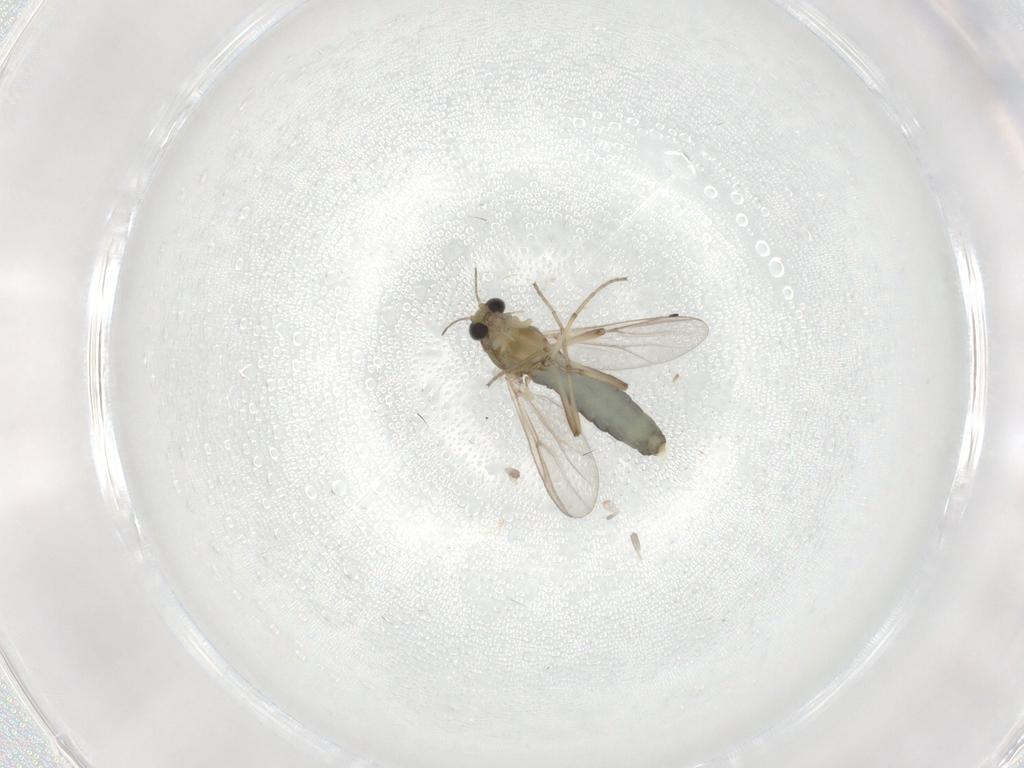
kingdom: Animalia
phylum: Arthropoda
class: Insecta
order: Diptera
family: Chironomidae
